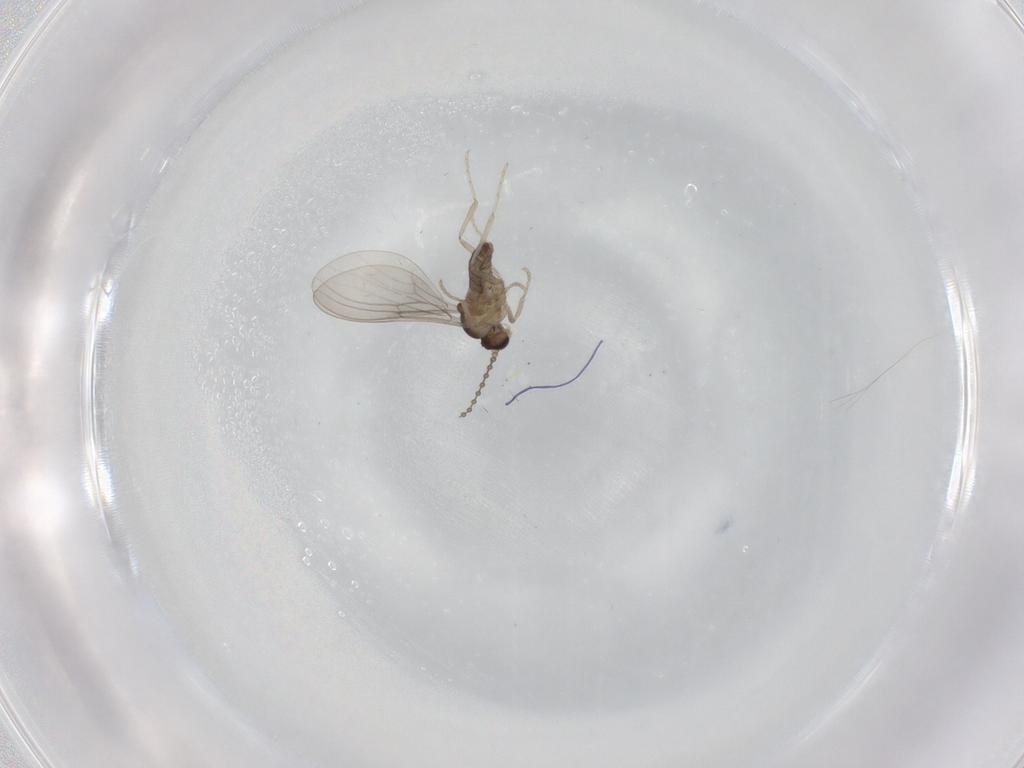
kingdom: Animalia
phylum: Arthropoda
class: Insecta
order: Diptera
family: Cecidomyiidae
